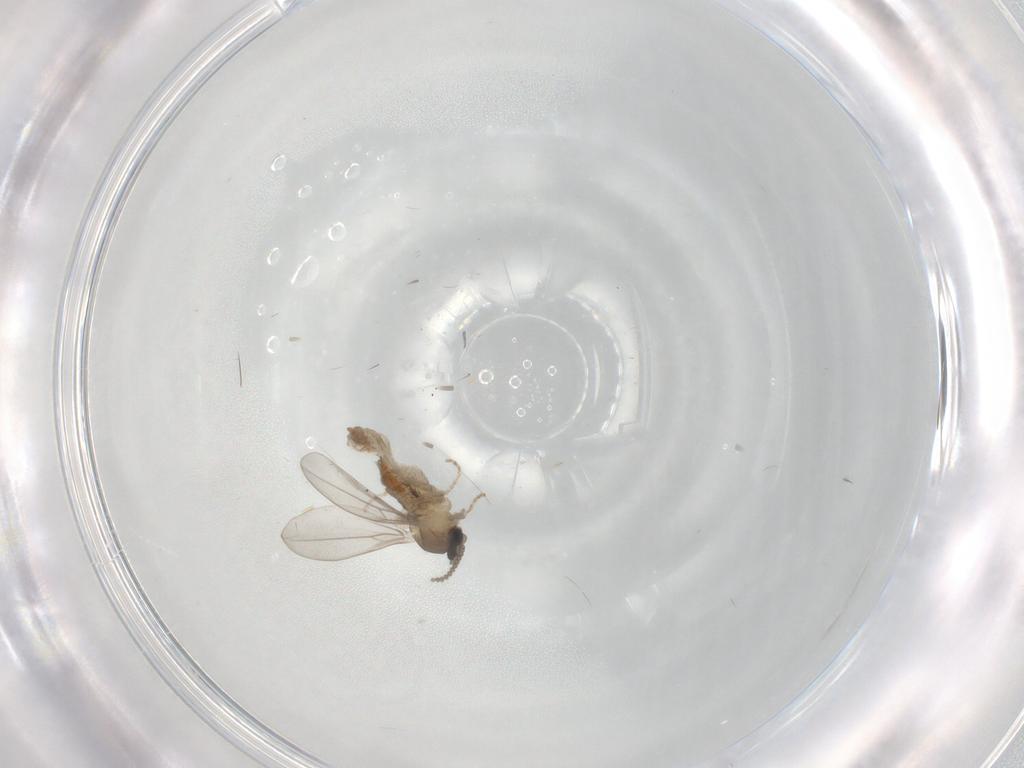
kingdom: Animalia
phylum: Arthropoda
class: Insecta
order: Diptera
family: Cecidomyiidae
